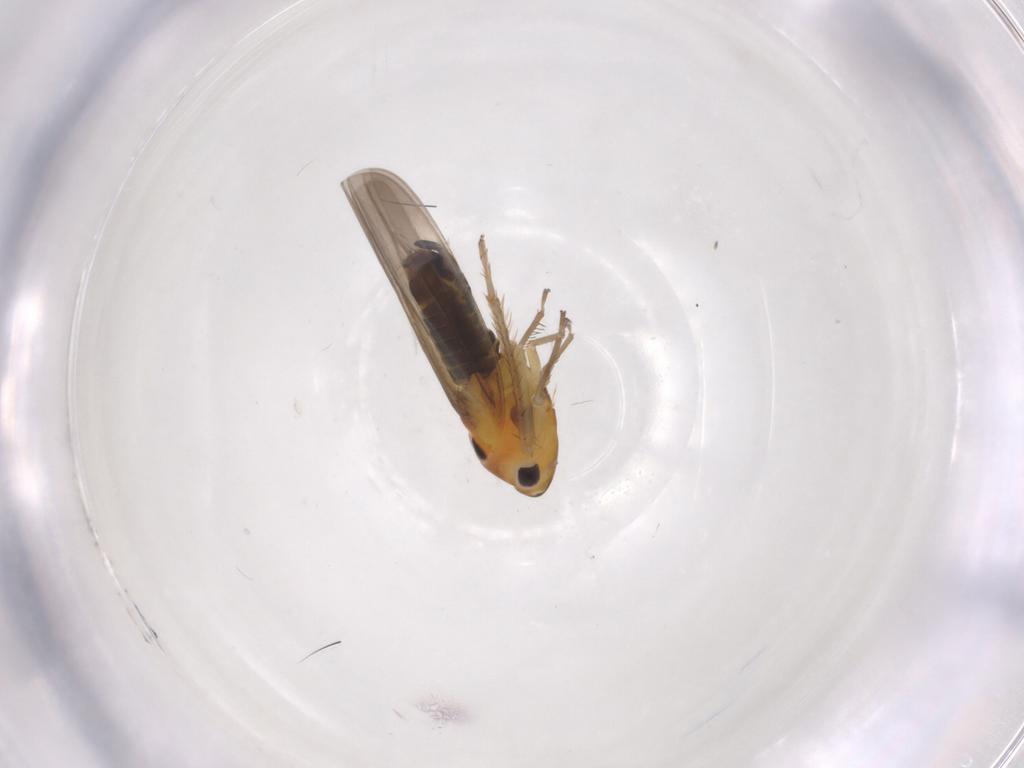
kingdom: Animalia
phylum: Arthropoda
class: Insecta
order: Hemiptera
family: Cicadellidae
